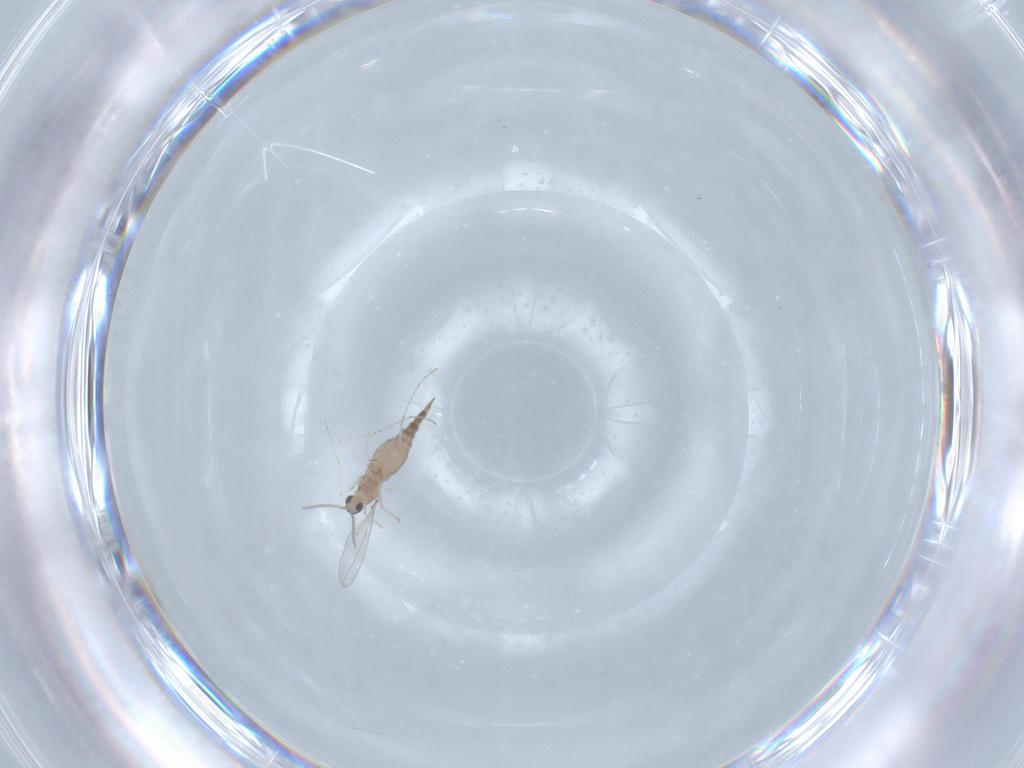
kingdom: Animalia
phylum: Arthropoda
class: Insecta
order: Diptera
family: Cecidomyiidae
